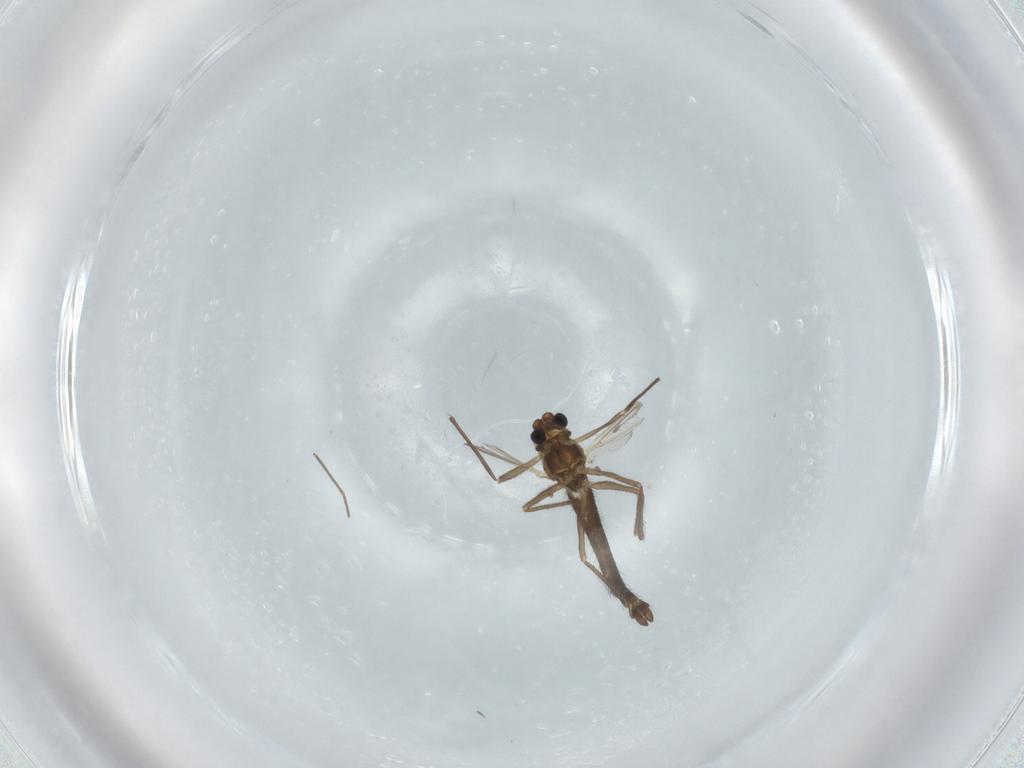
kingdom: Animalia
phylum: Arthropoda
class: Insecta
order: Diptera
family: Chironomidae
